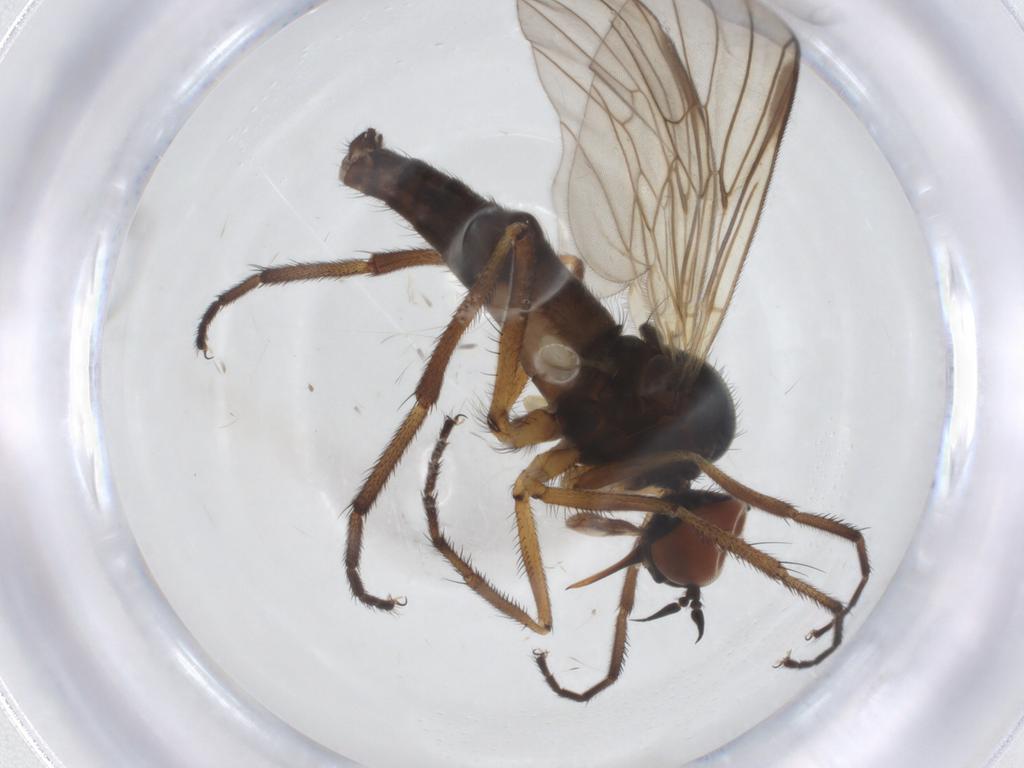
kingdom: Animalia
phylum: Arthropoda
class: Insecta
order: Diptera
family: Empididae
